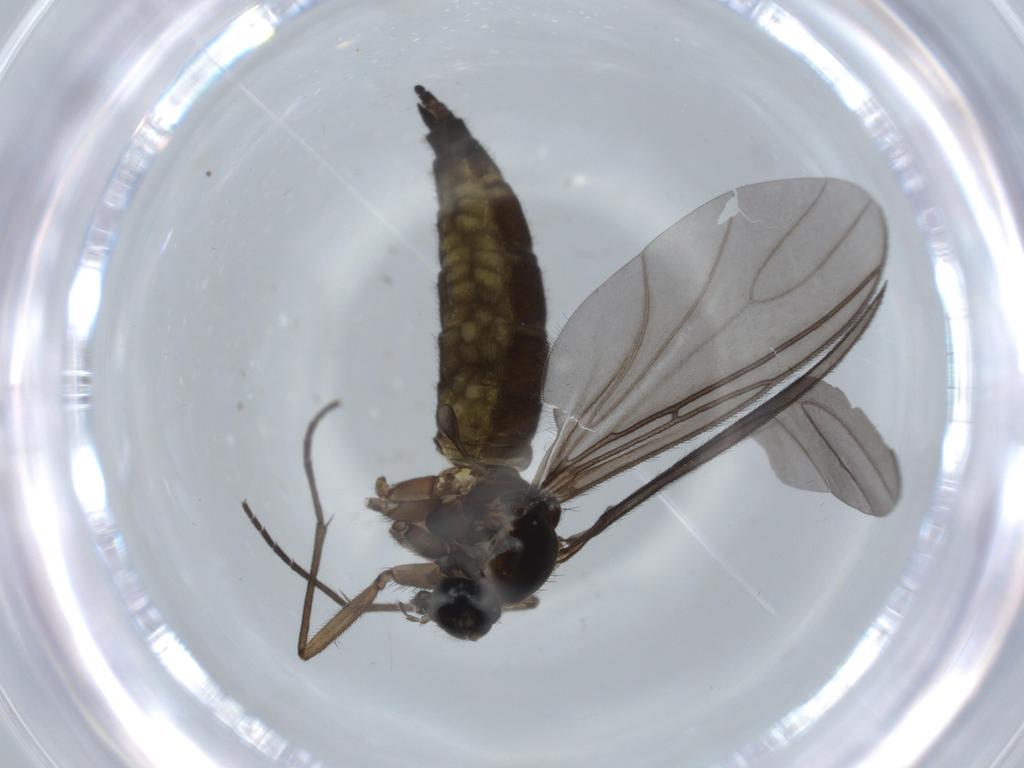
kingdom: Animalia
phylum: Arthropoda
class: Insecta
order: Diptera
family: Sciaridae
